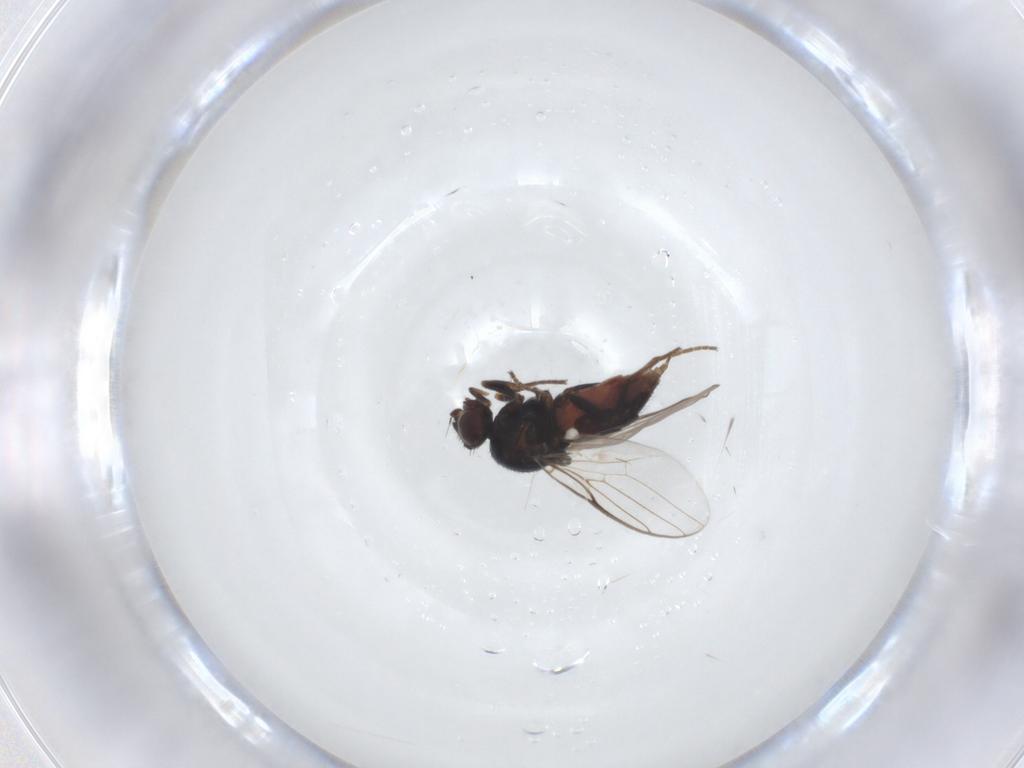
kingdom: Animalia
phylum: Arthropoda
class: Insecta
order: Diptera
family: Chloropidae
